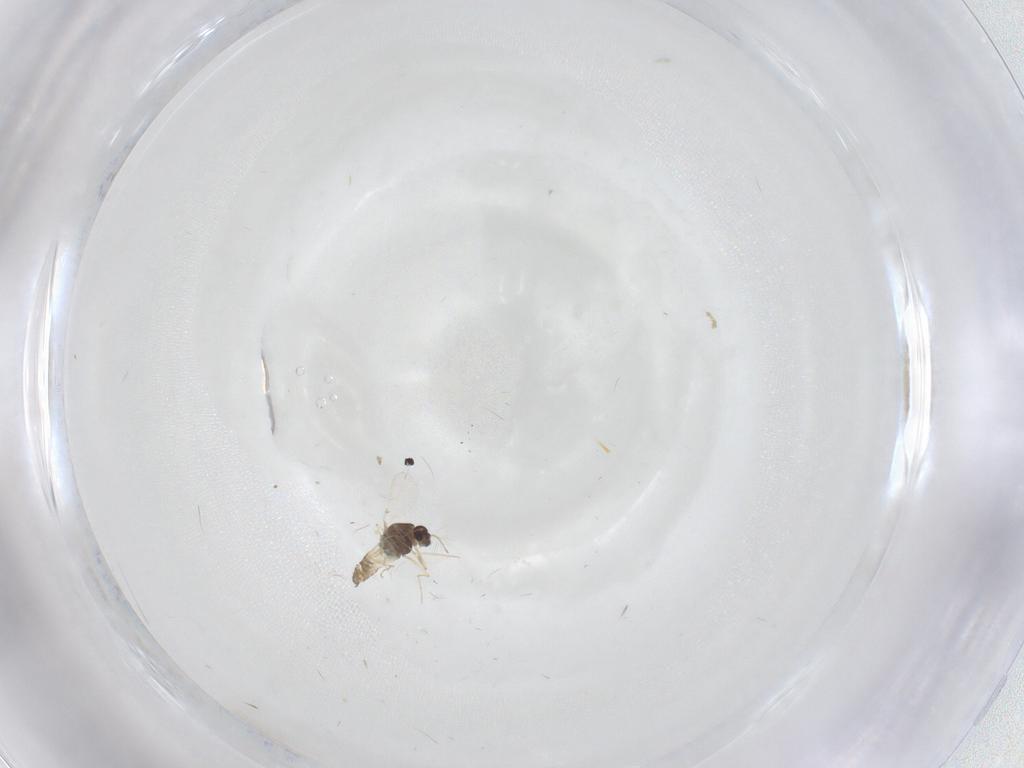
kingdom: Animalia
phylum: Arthropoda
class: Insecta
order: Diptera
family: Chironomidae
